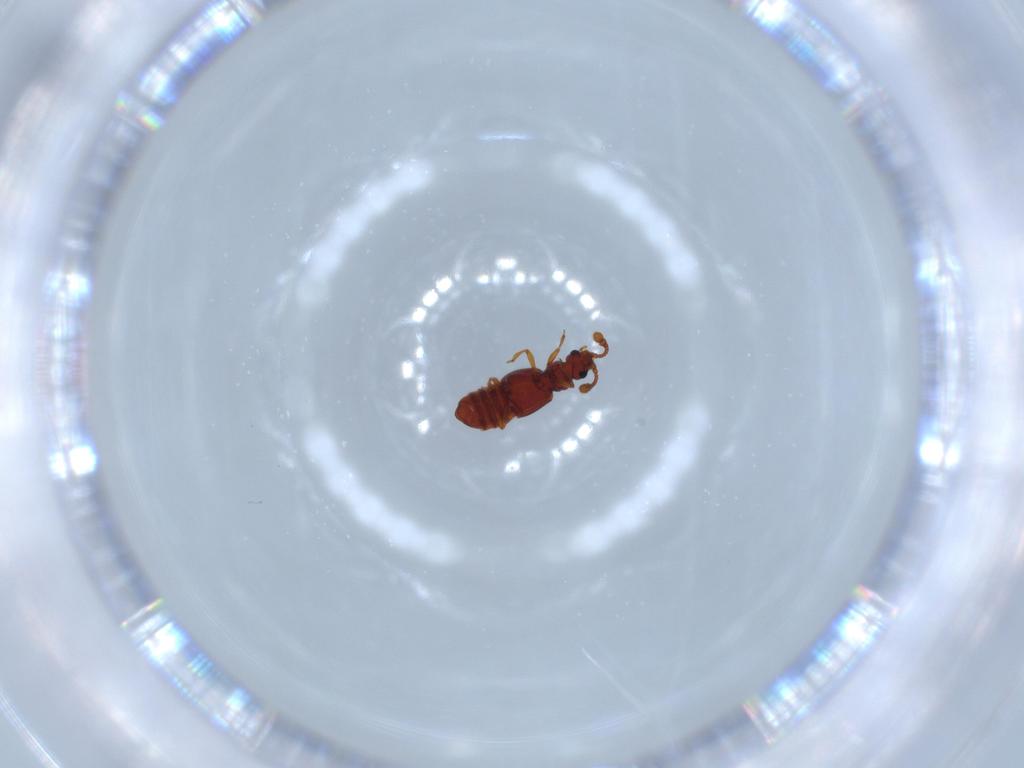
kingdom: Animalia
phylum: Arthropoda
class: Insecta
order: Coleoptera
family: Staphylinidae
